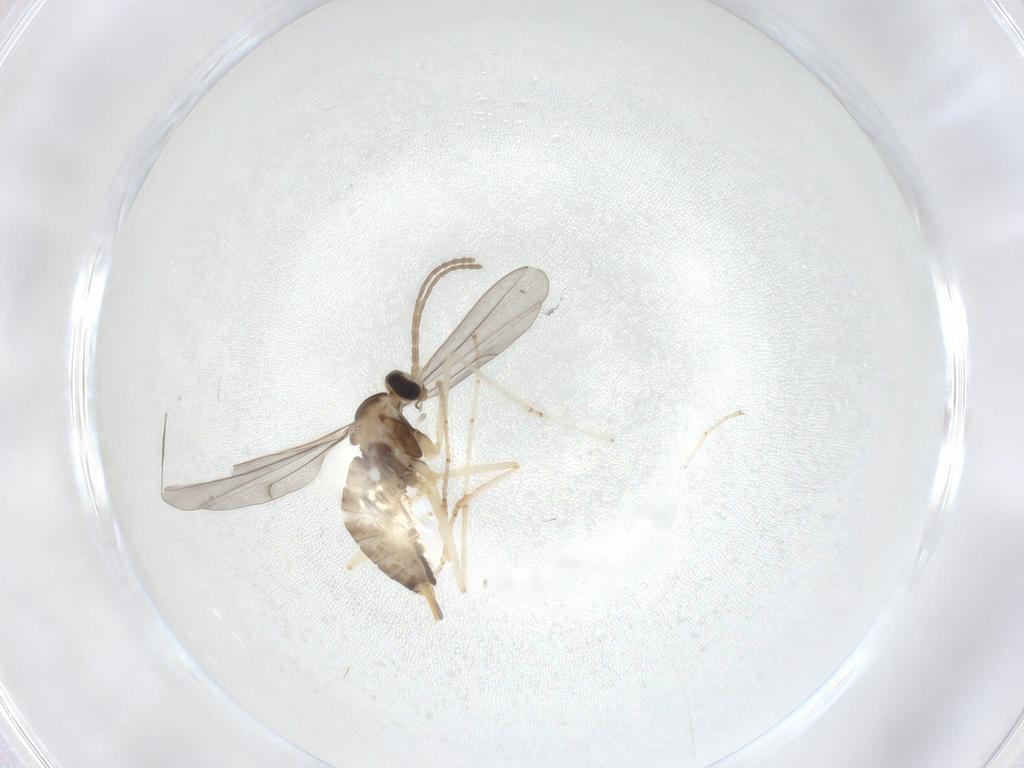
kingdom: Animalia
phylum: Arthropoda
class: Insecta
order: Diptera
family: Cecidomyiidae
